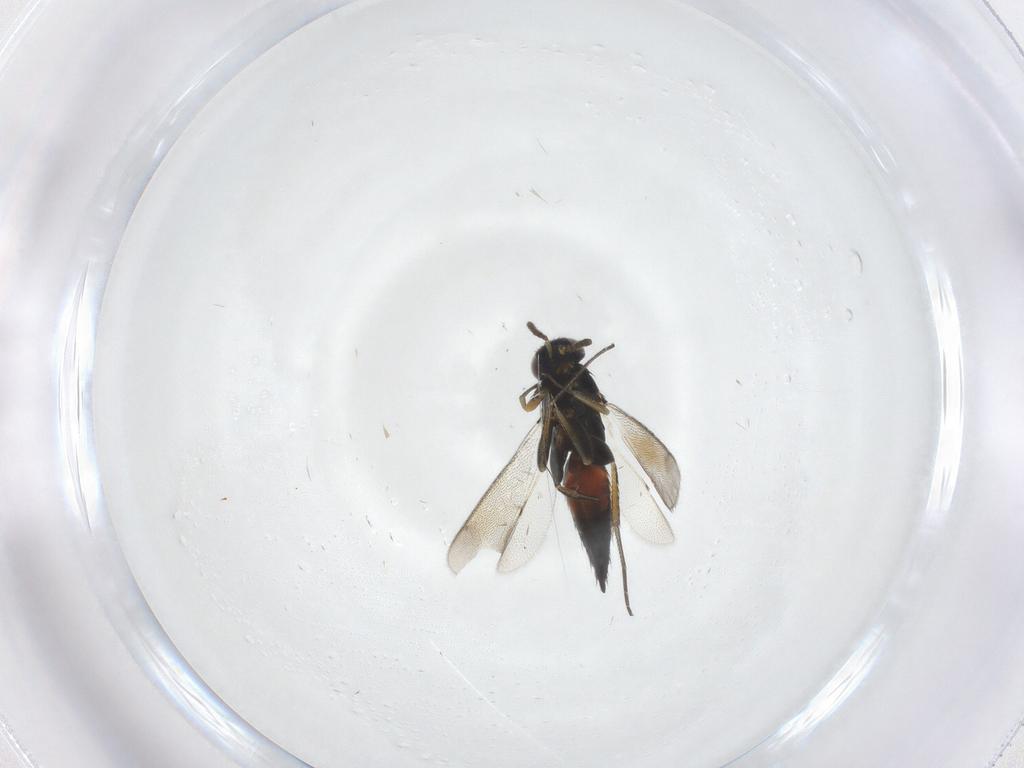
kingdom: Animalia
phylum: Arthropoda
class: Insecta
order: Hymenoptera
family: Eulophidae
